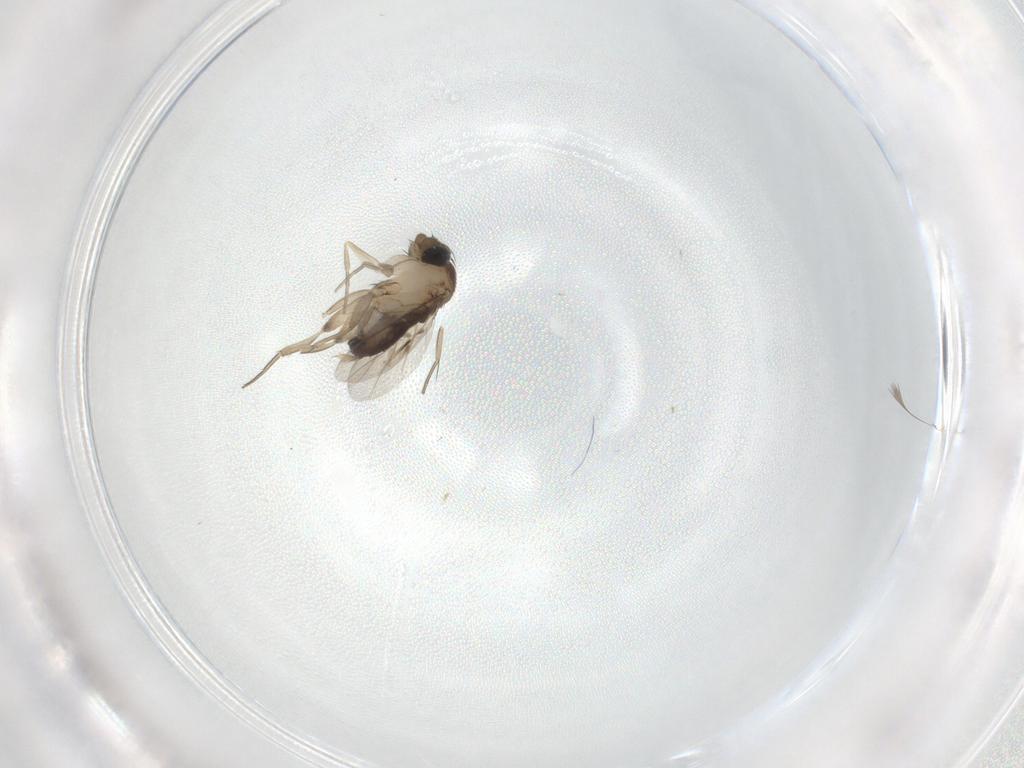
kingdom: Animalia
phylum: Arthropoda
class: Insecta
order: Diptera
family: Phoridae
